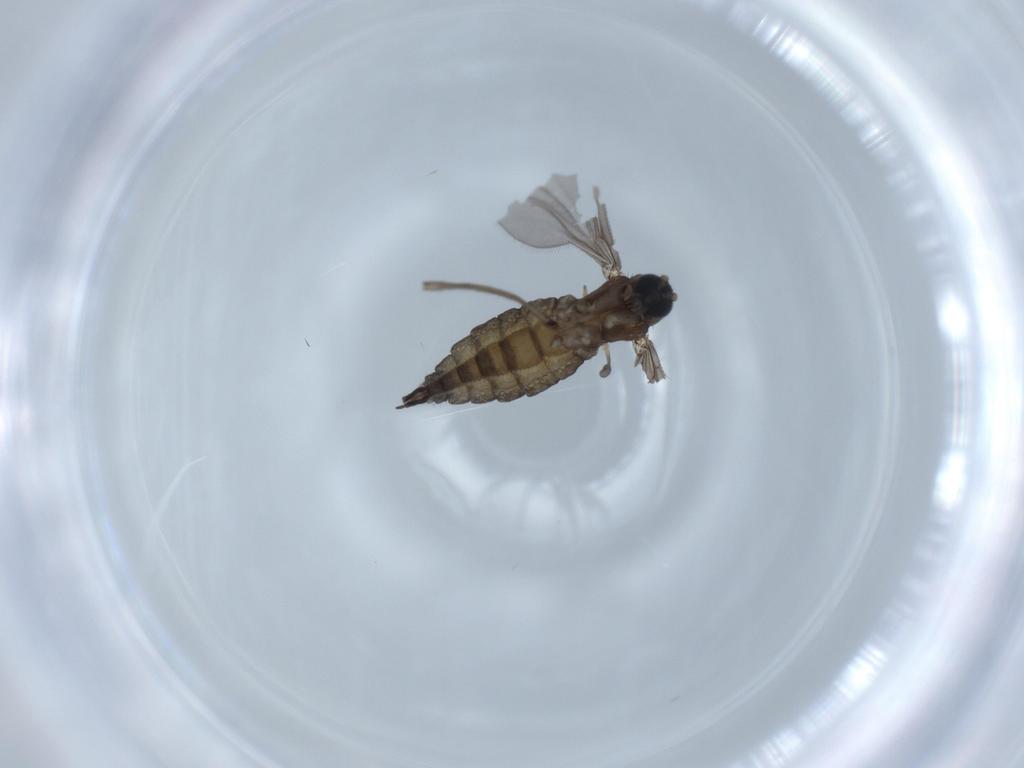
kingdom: Animalia
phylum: Arthropoda
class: Insecta
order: Diptera
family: Sciaridae
